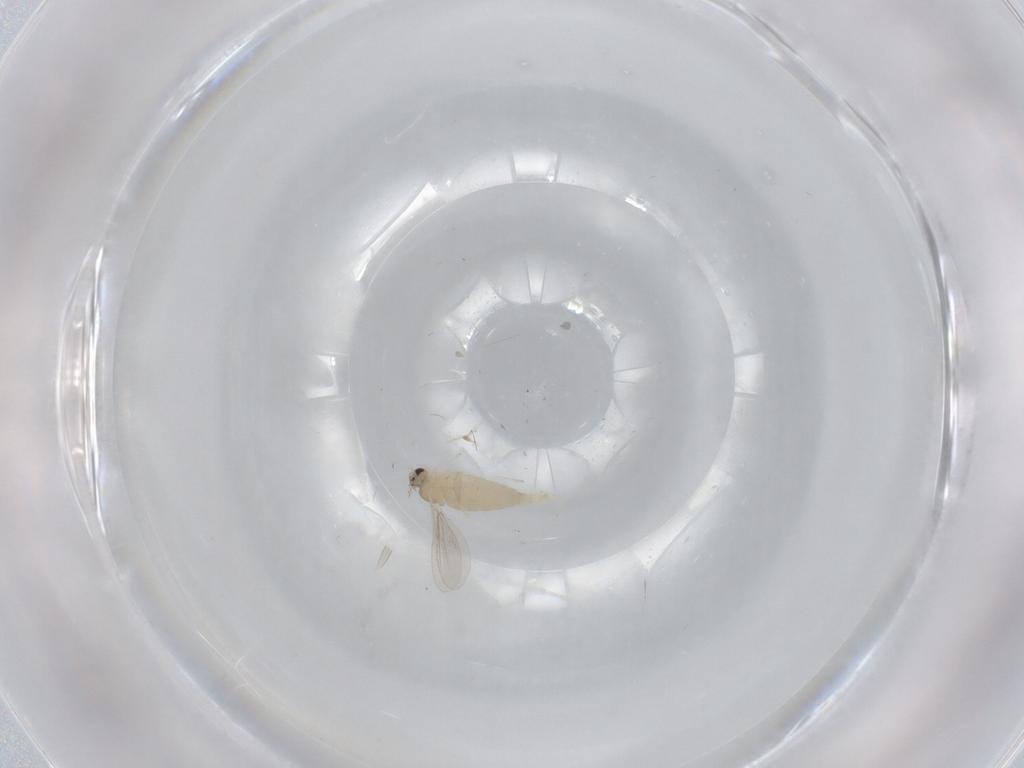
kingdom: Animalia
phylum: Arthropoda
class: Insecta
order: Diptera
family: Cecidomyiidae
